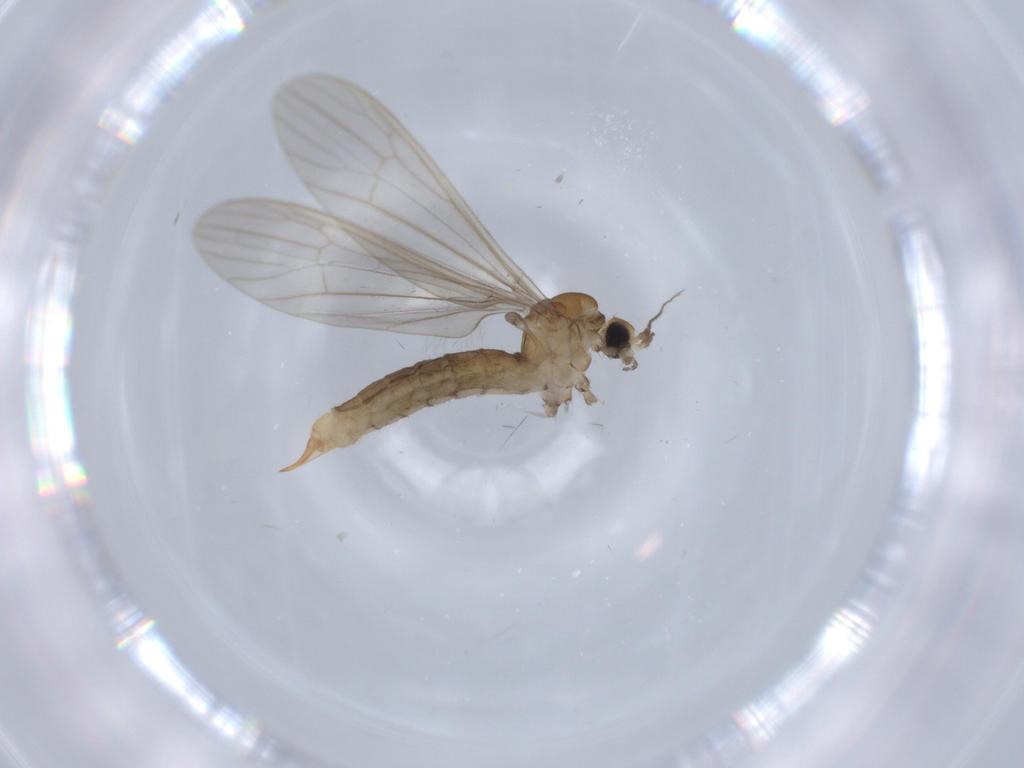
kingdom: Animalia
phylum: Arthropoda
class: Insecta
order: Diptera
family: Limoniidae
